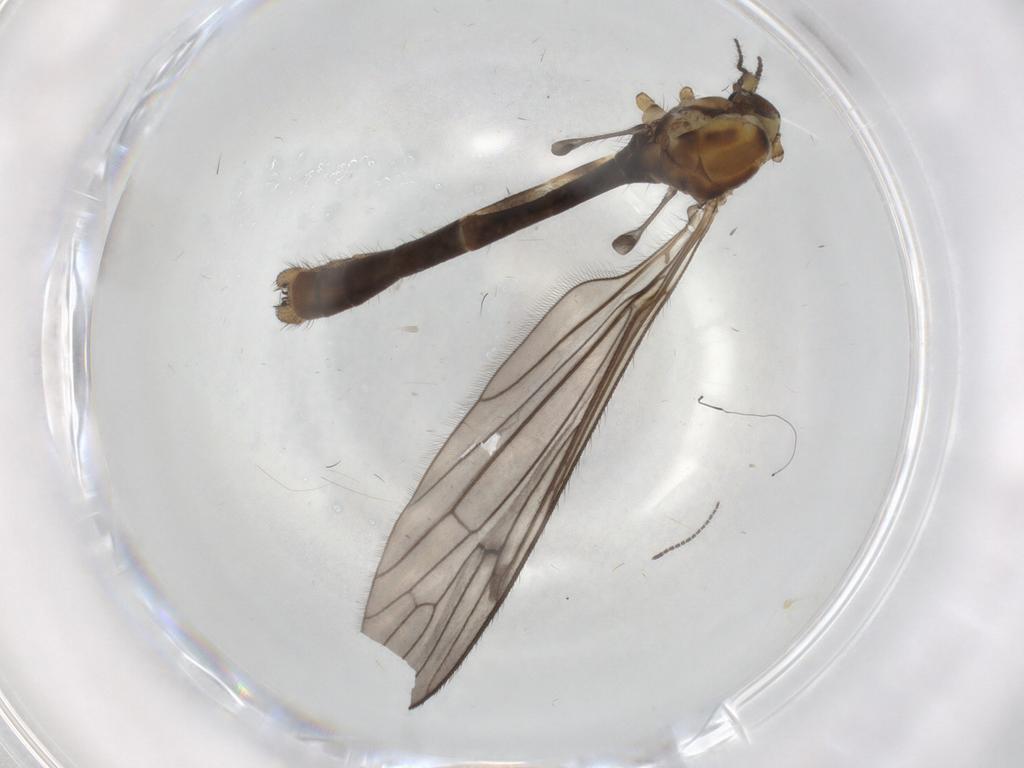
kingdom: Animalia
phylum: Arthropoda
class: Insecta
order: Diptera
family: Limoniidae
